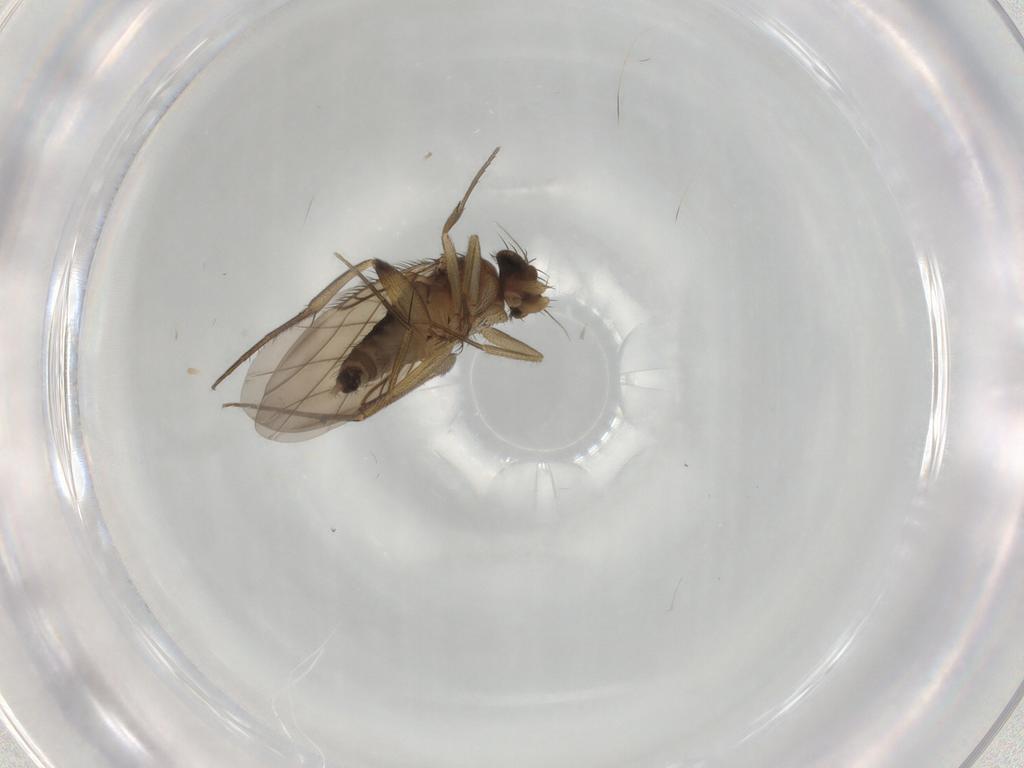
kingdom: Animalia
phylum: Arthropoda
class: Insecta
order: Diptera
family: Phoridae
